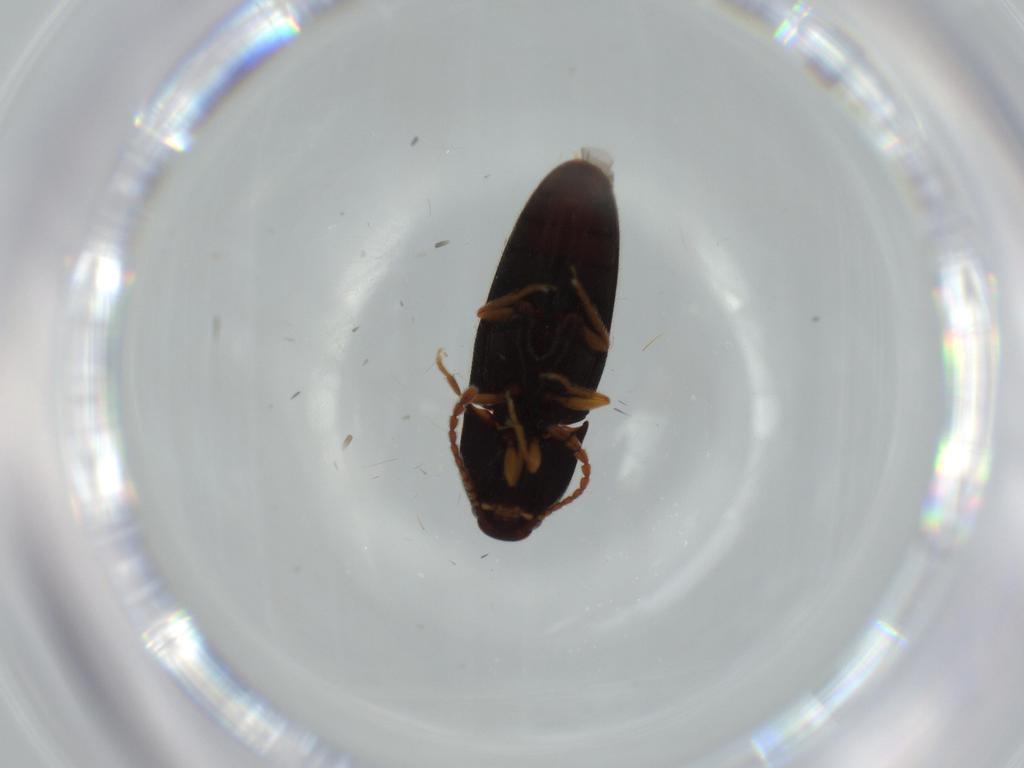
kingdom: Animalia
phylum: Arthropoda
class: Insecta
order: Coleoptera
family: Elateridae
